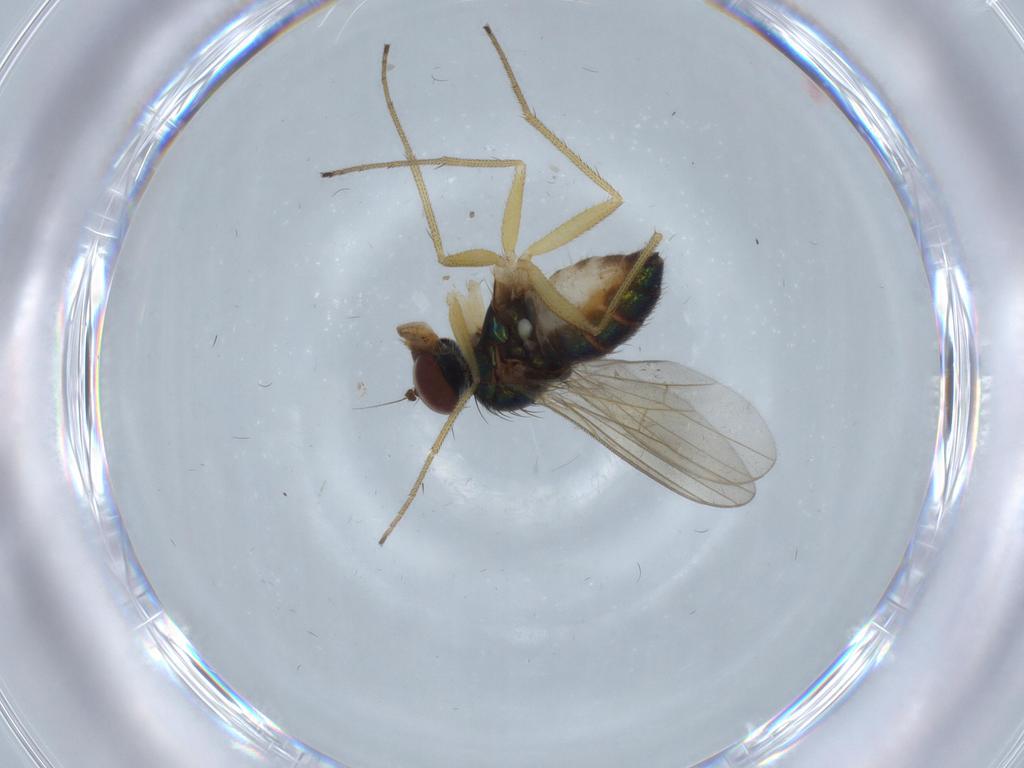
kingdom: Animalia
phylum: Arthropoda
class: Insecta
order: Diptera
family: Dolichopodidae
